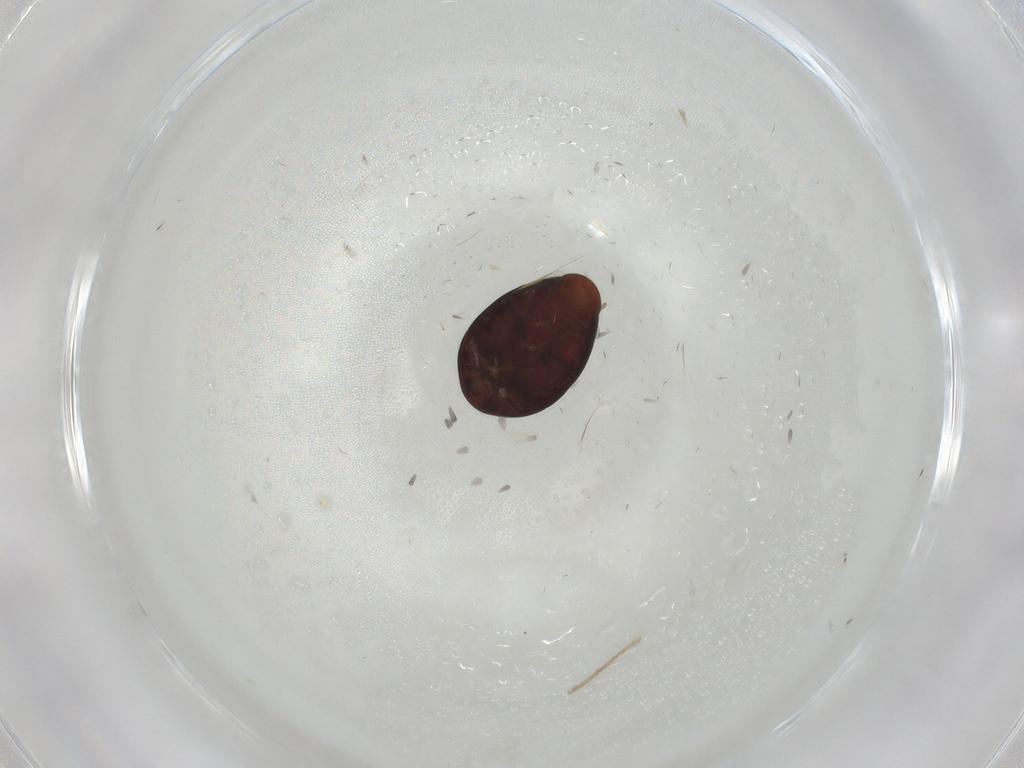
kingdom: Animalia
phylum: Arthropoda
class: Insecta
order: Coleoptera
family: Corylophidae
